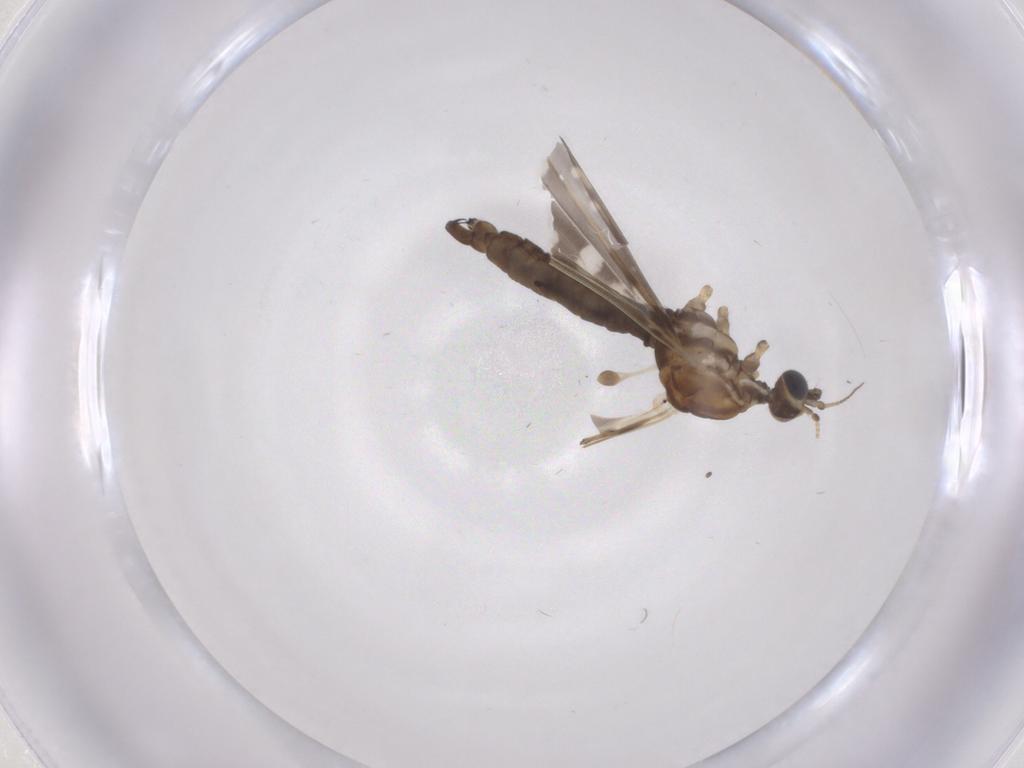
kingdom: Animalia
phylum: Arthropoda
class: Insecta
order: Diptera
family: Limoniidae
